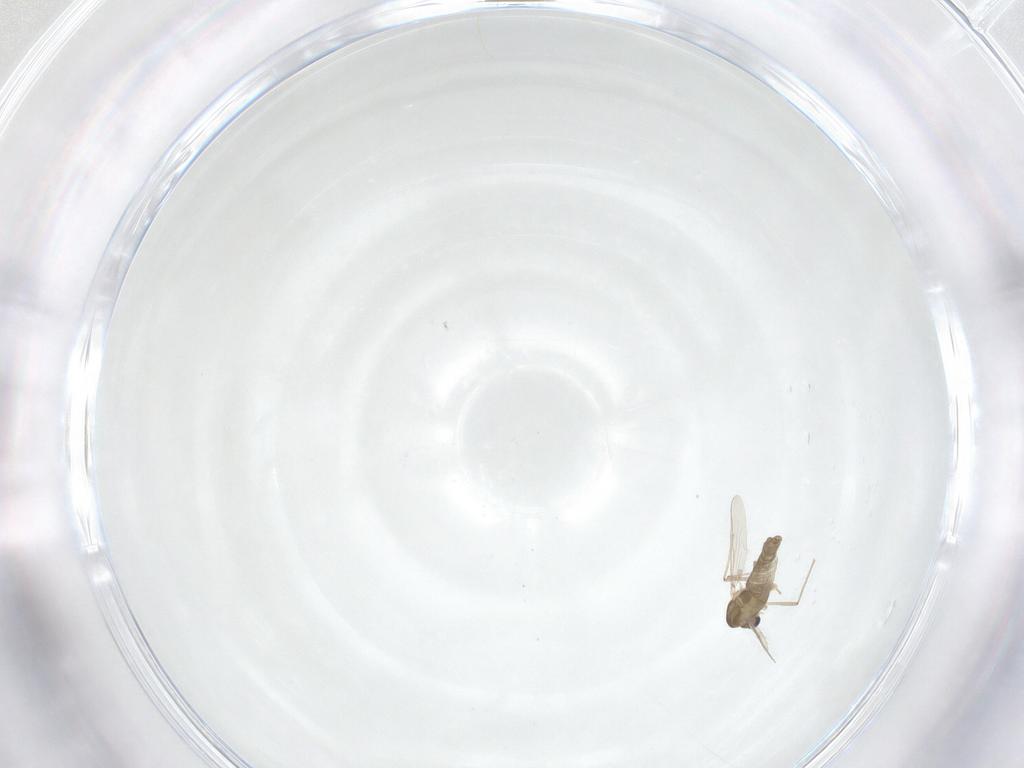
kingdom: Animalia
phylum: Arthropoda
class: Insecta
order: Diptera
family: Chironomidae
